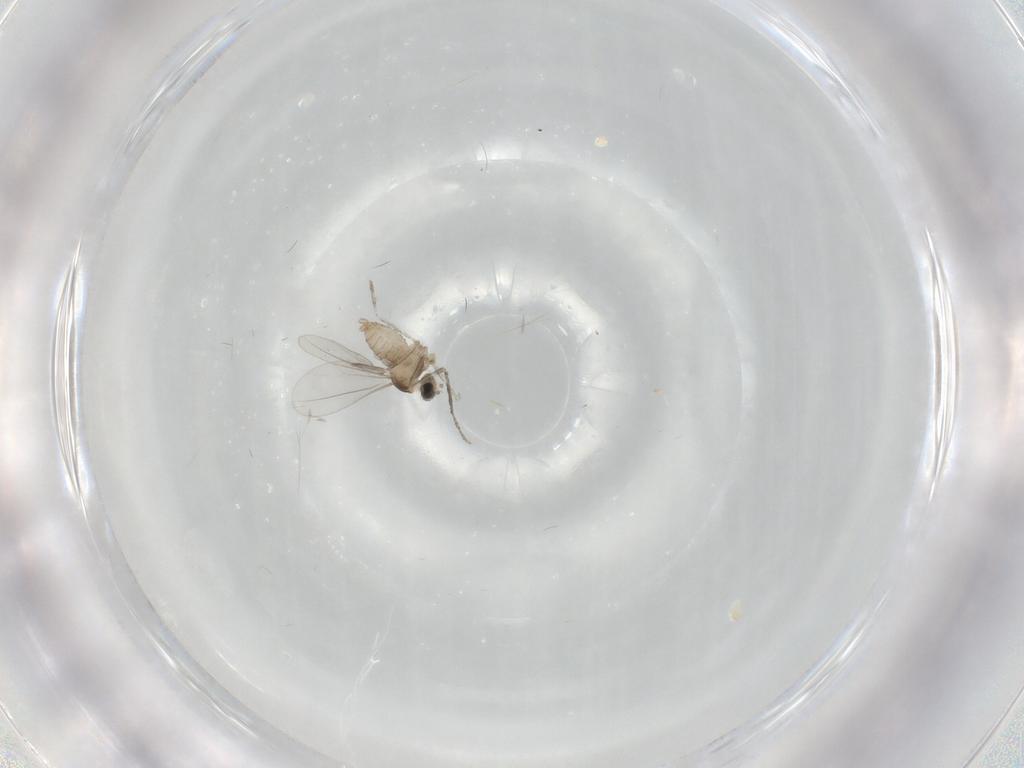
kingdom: Animalia
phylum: Arthropoda
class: Insecta
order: Diptera
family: Cecidomyiidae
